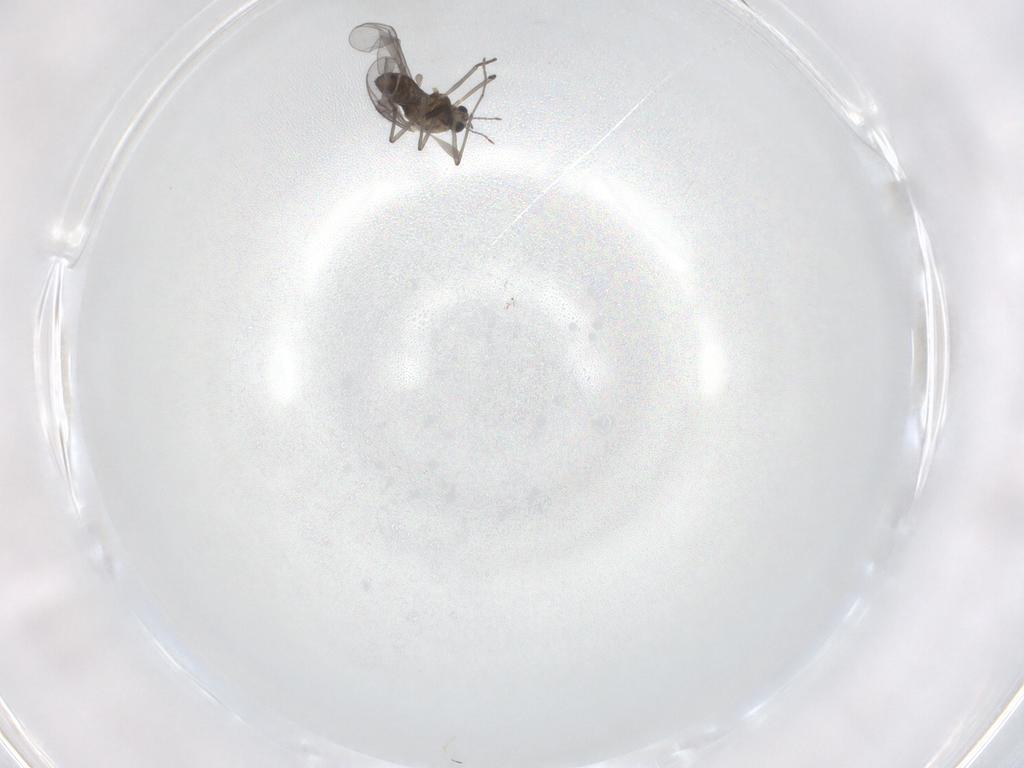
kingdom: Animalia
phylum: Arthropoda
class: Insecta
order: Diptera
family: Chironomidae
